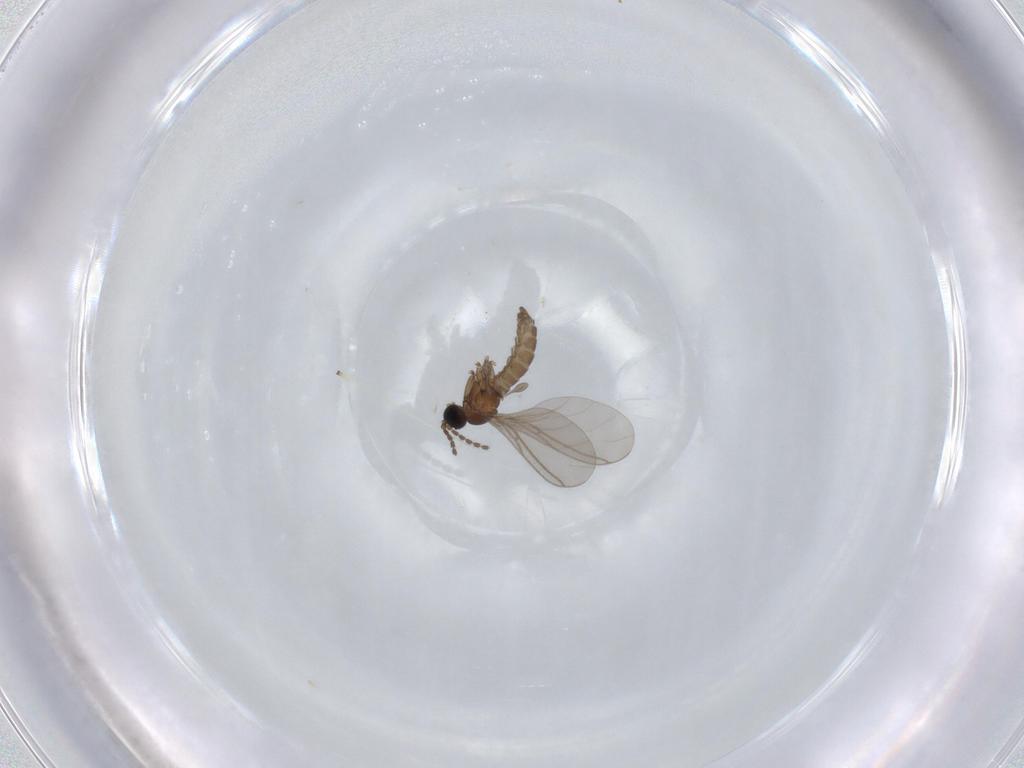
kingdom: Animalia
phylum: Arthropoda
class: Insecta
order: Diptera
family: Sciaridae
